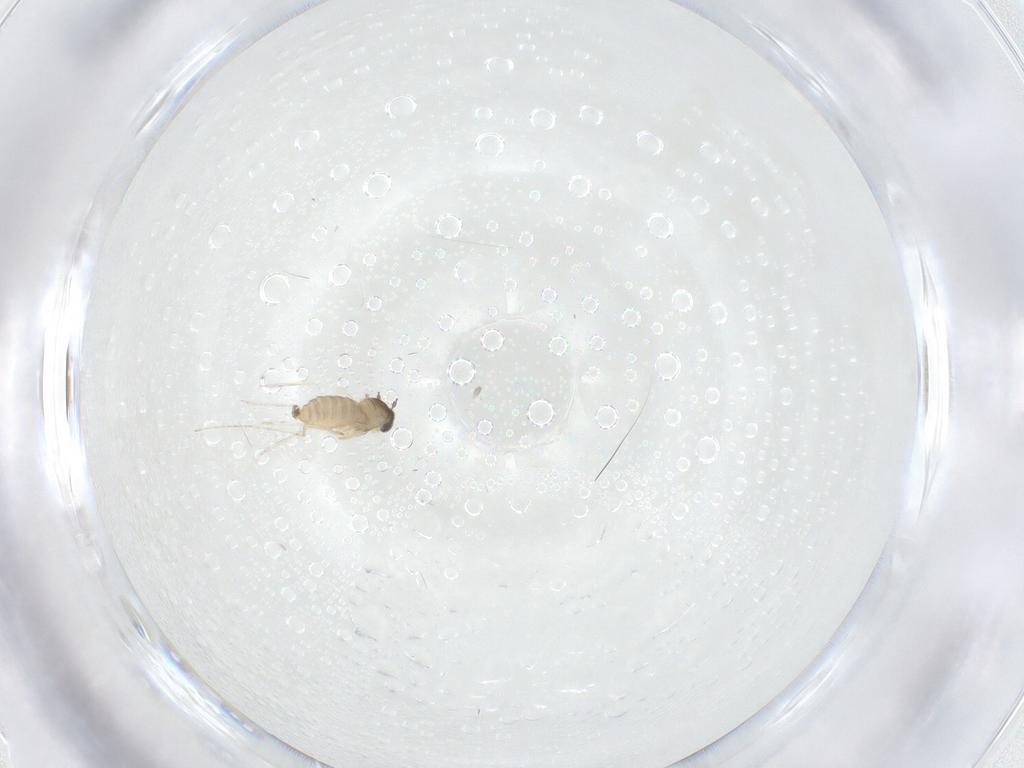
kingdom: Animalia
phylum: Arthropoda
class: Insecta
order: Diptera
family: Cecidomyiidae
